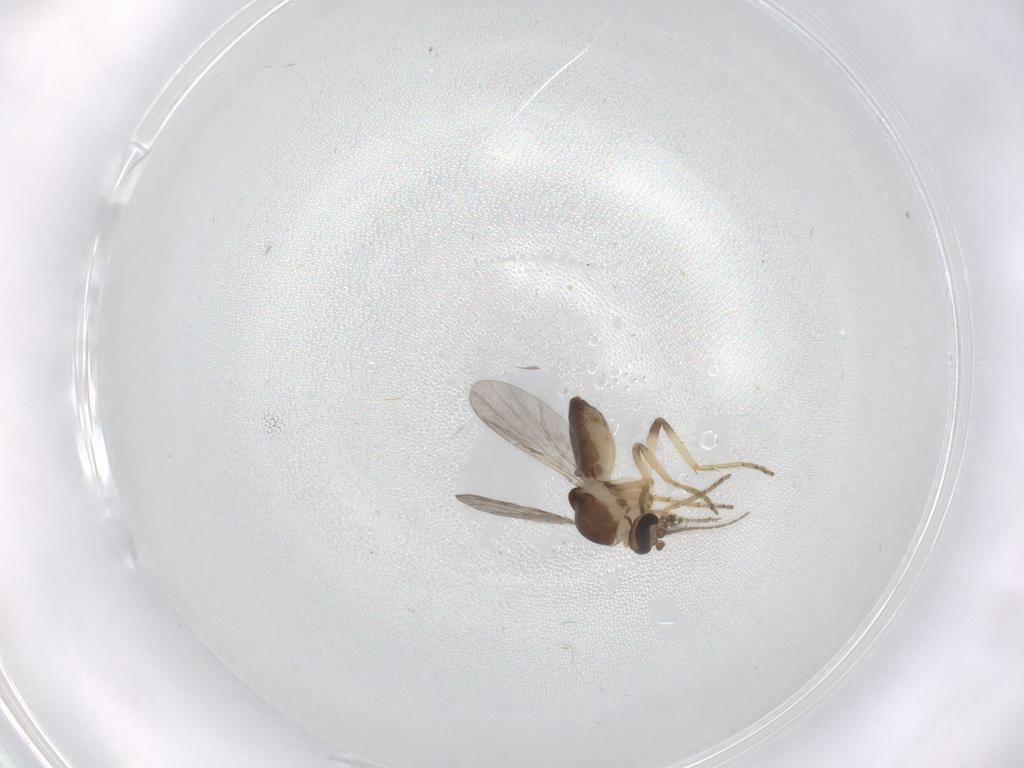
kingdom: Animalia
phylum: Arthropoda
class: Insecta
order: Diptera
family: Ceratopogonidae
